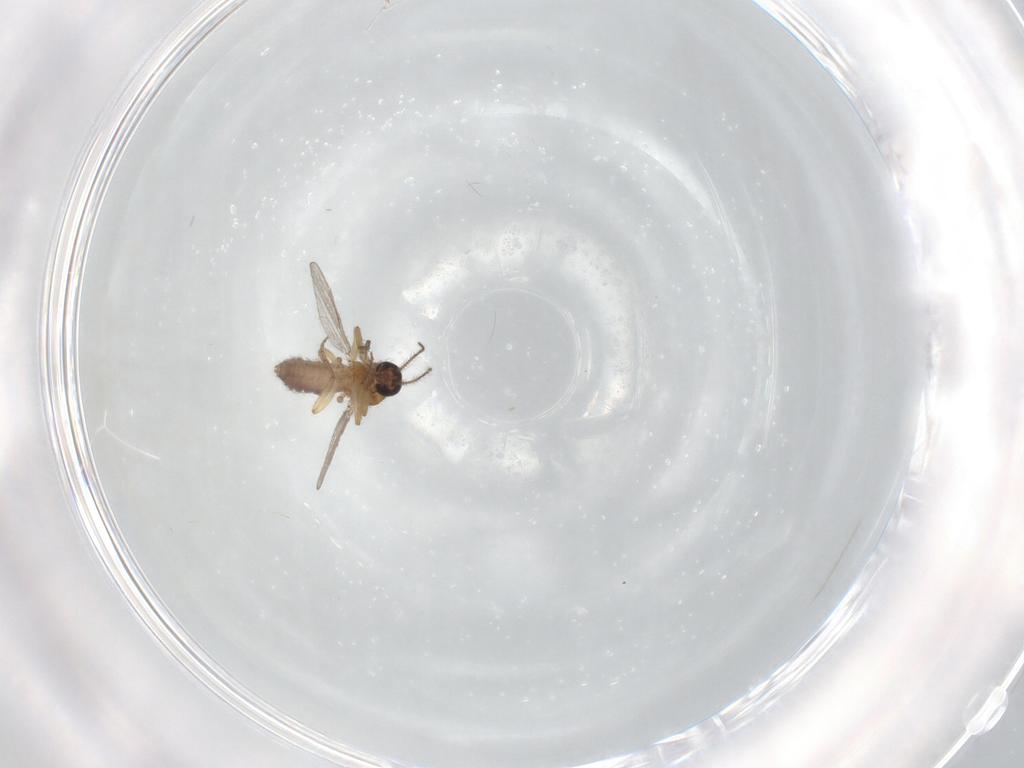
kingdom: Animalia
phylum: Arthropoda
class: Insecta
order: Diptera
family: Ceratopogonidae
